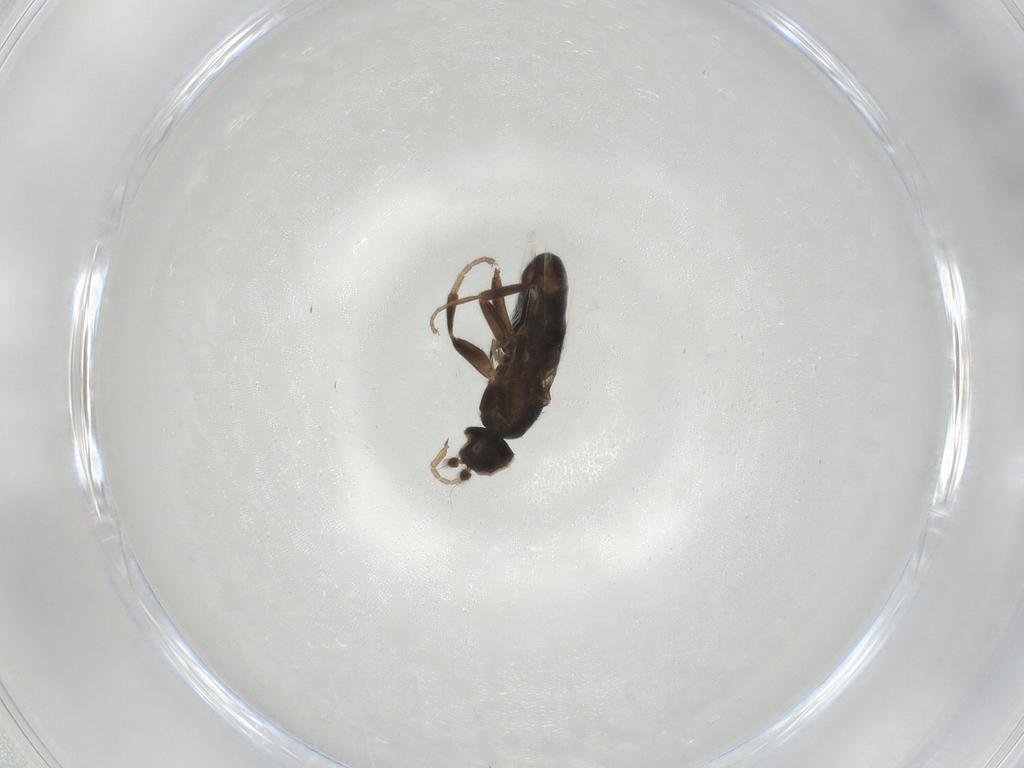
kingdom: Animalia
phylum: Arthropoda
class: Insecta
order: Diptera
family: Phoridae
